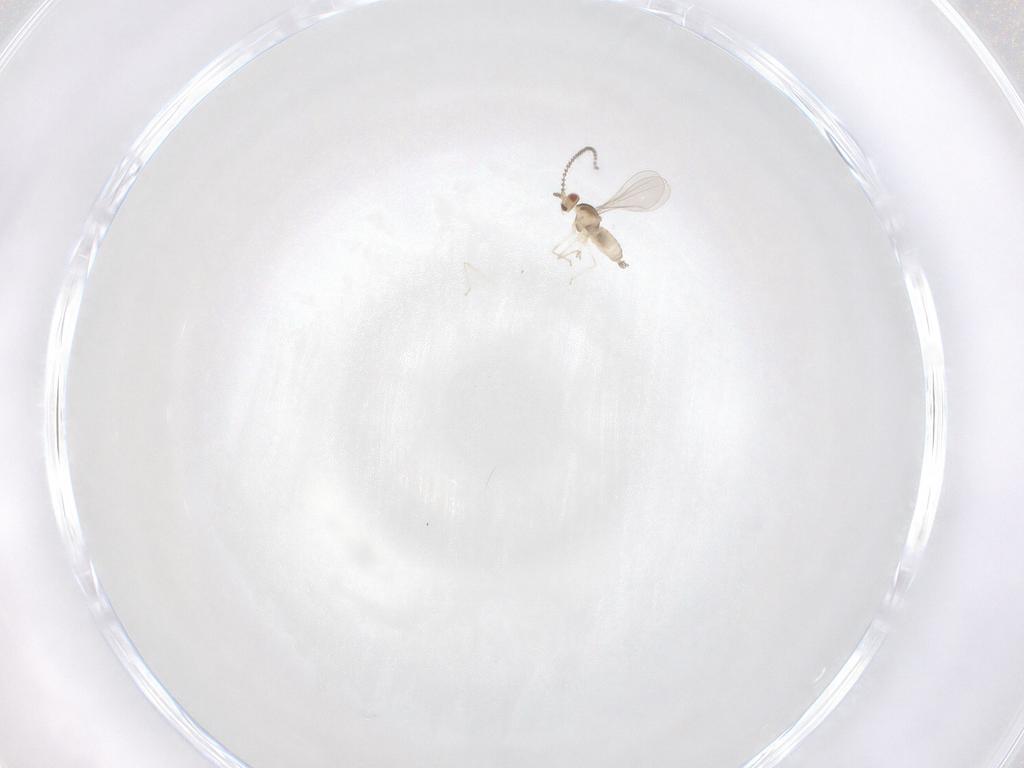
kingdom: Animalia
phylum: Arthropoda
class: Insecta
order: Diptera
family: Cecidomyiidae
